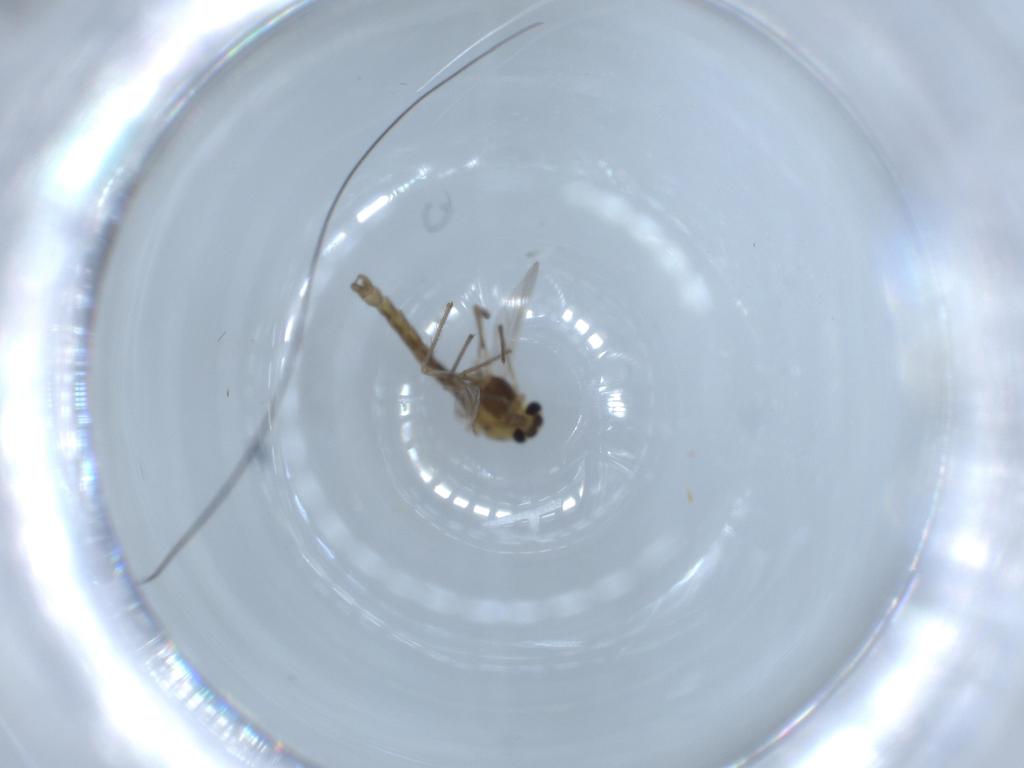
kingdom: Animalia
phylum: Arthropoda
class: Insecta
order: Diptera
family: Chironomidae
